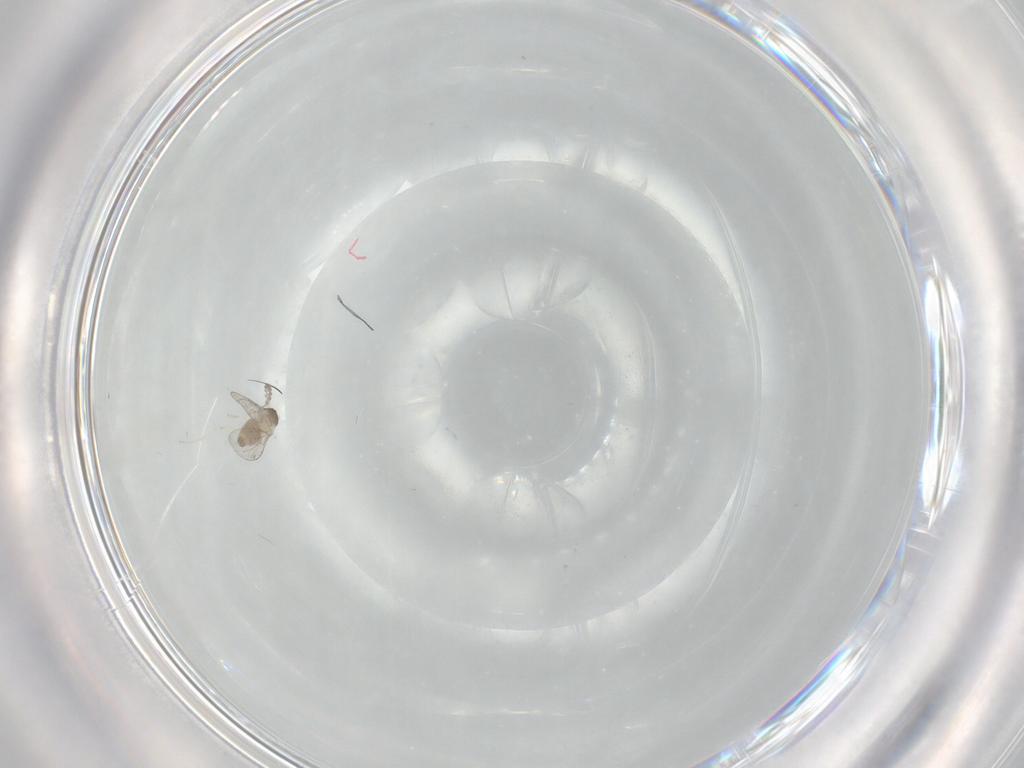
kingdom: Animalia
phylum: Arthropoda
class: Insecta
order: Diptera
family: Cecidomyiidae
